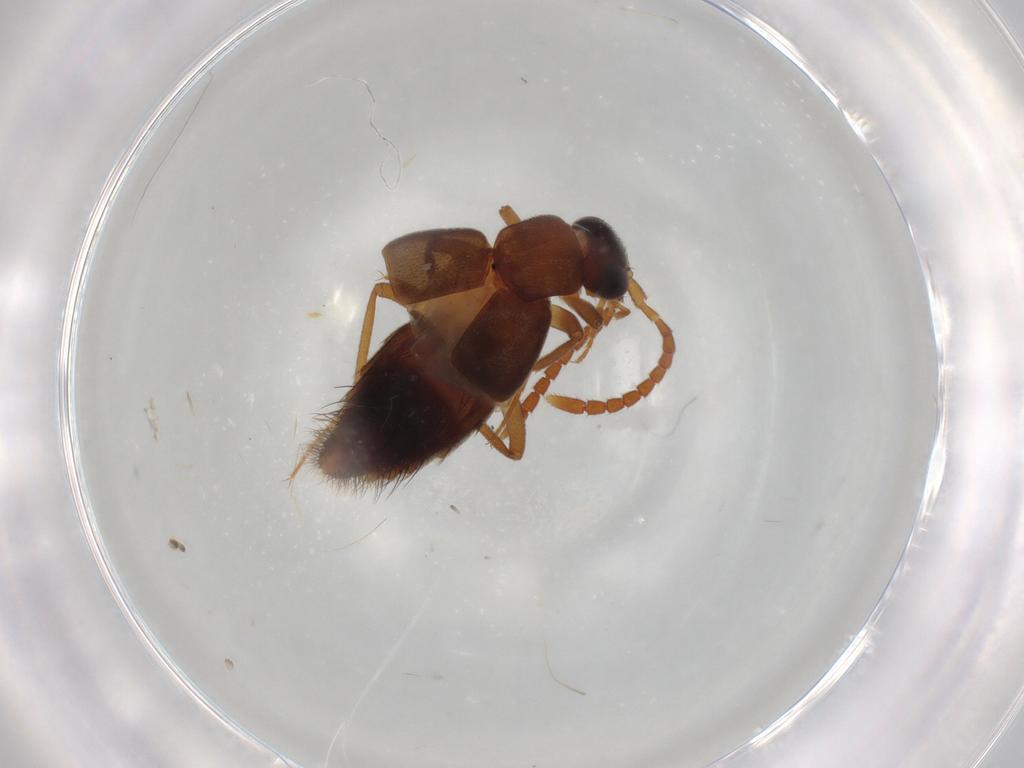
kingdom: Animalia
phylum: Arthropoda
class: Insecta
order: Coleoptera
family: Staphylinidae
